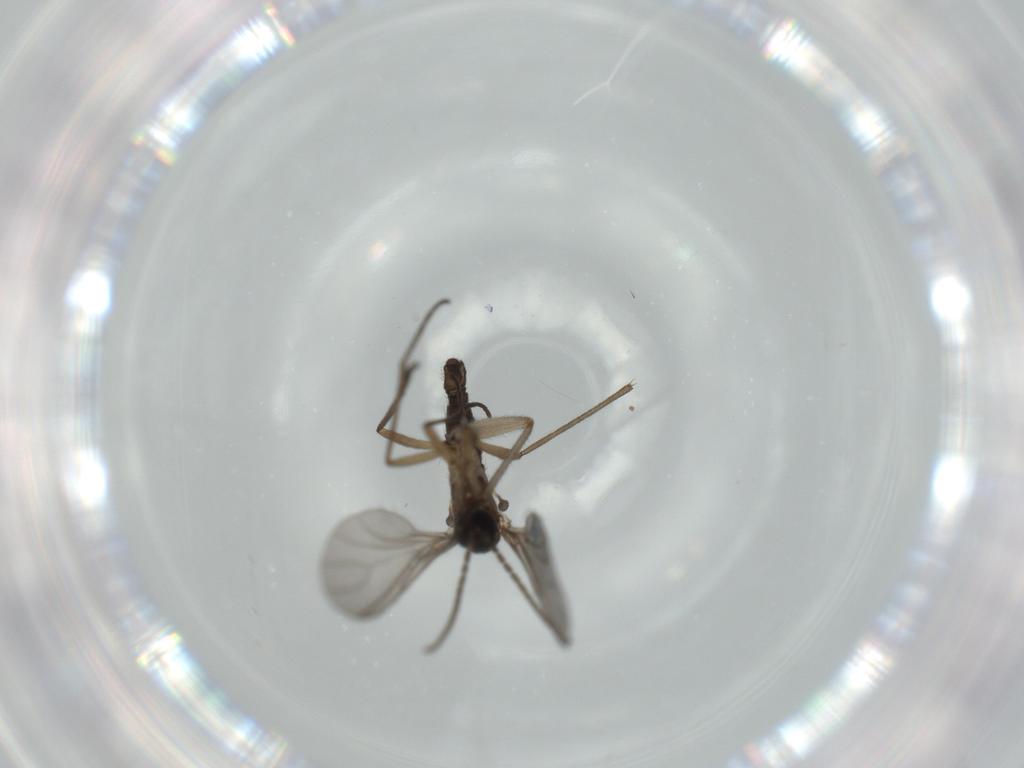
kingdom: Animalia
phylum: Arthropoda
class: Insecta
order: Diptera
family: Sciaridae
